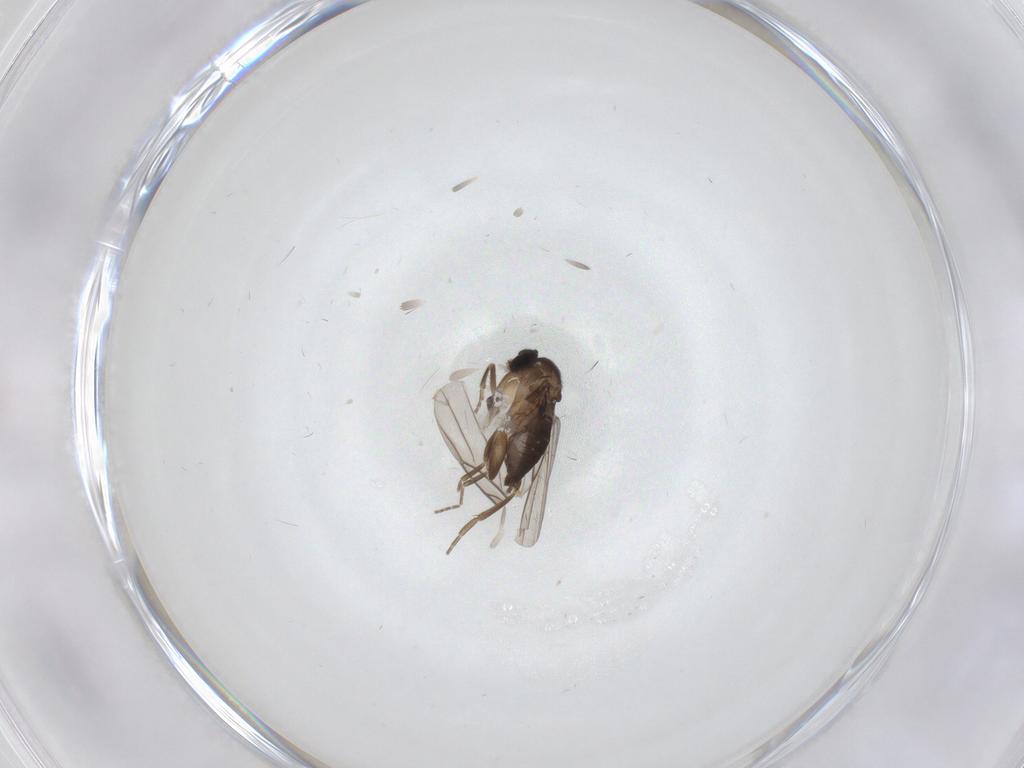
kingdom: Animalia
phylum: Arthropoda
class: Insecta
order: Diptera
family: Ceratopogonidae
